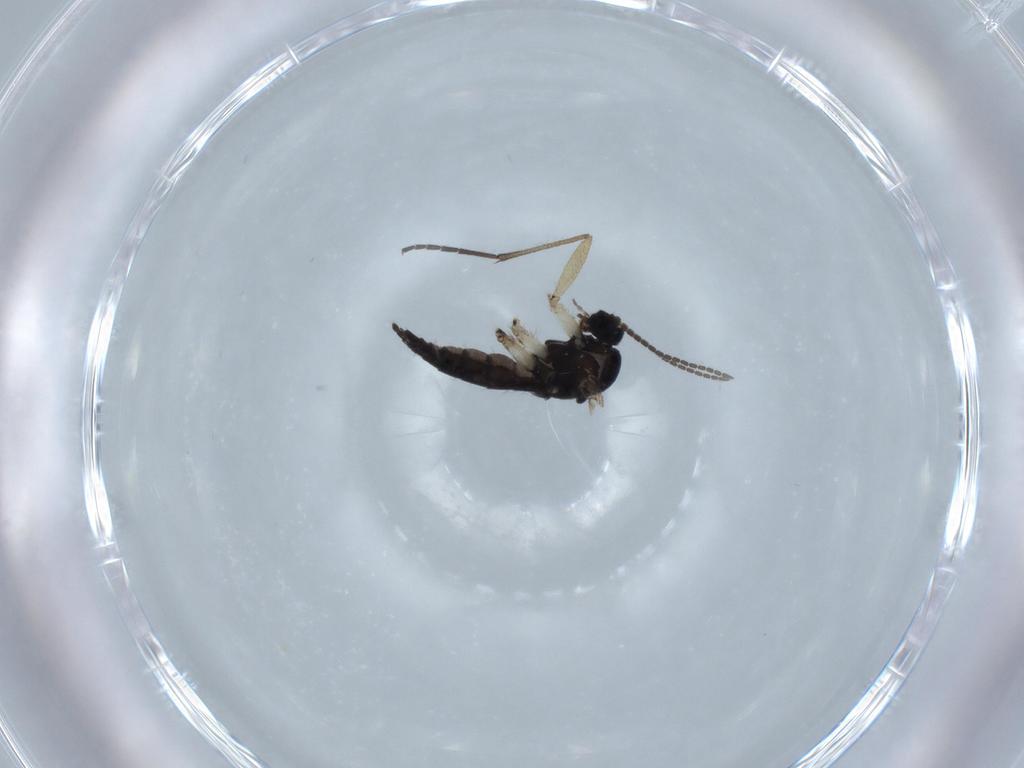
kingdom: Animalia
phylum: Arthropoda
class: Insecta
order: Diptera
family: Sciaridae
